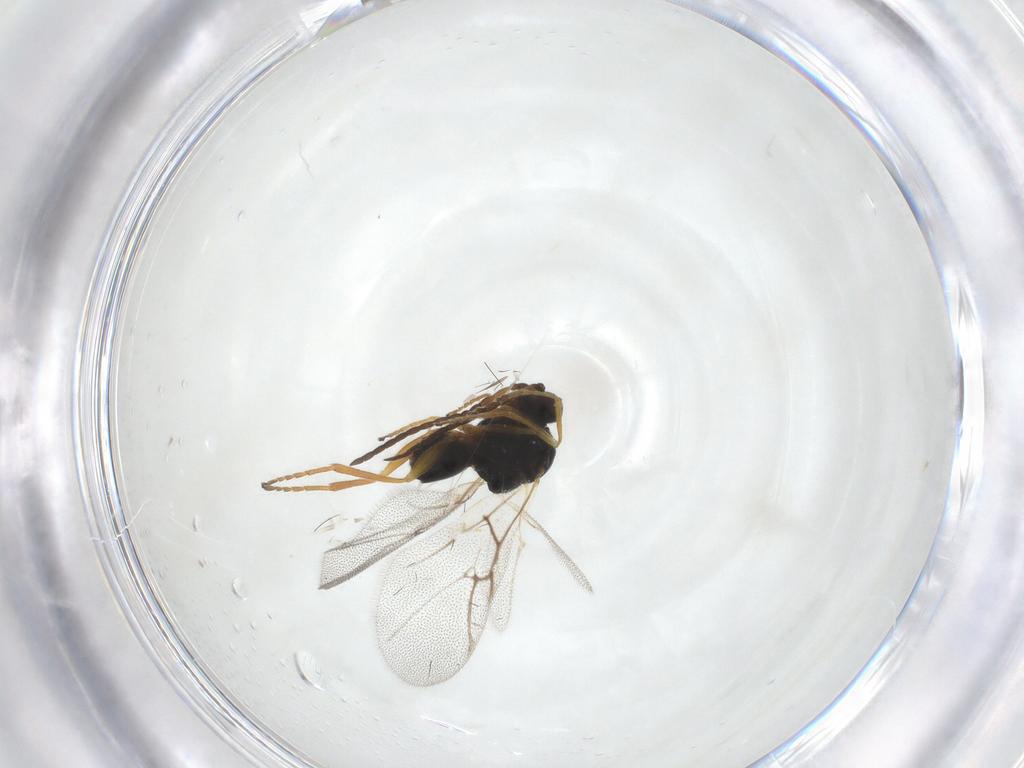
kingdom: Animalia
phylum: Arthropoda
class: Insecta
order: Hymenoptera
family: Cynipidae
